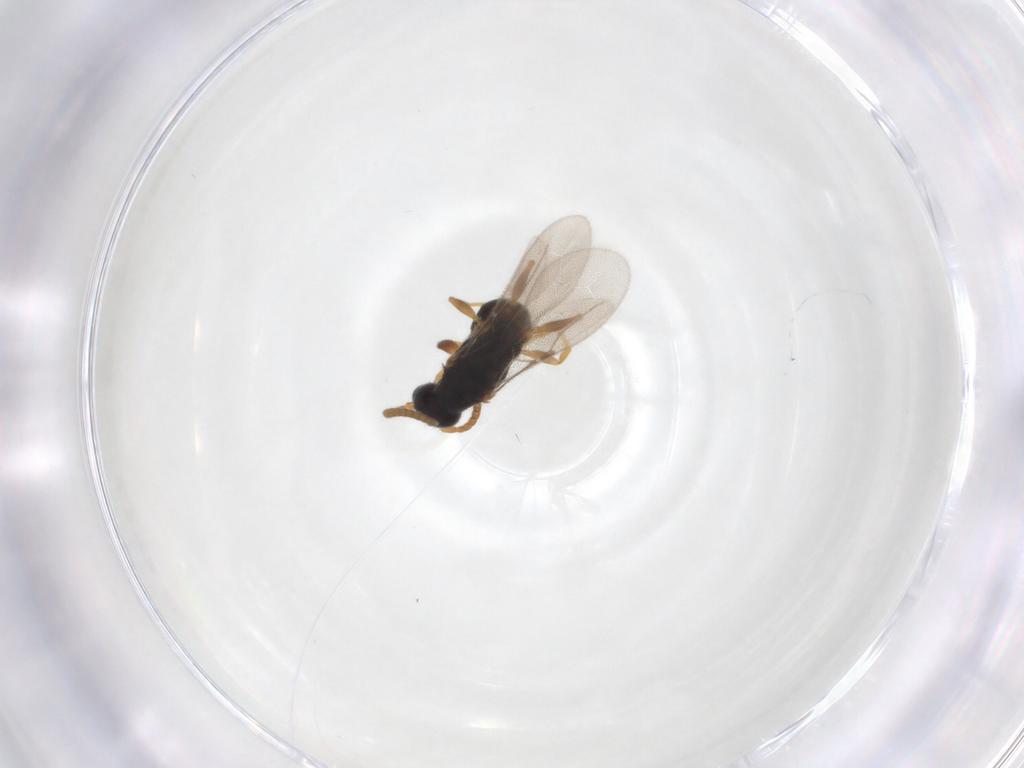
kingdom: Animalia
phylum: Arthropoda
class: Insecta
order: Hymenoptera
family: Bethylidae
